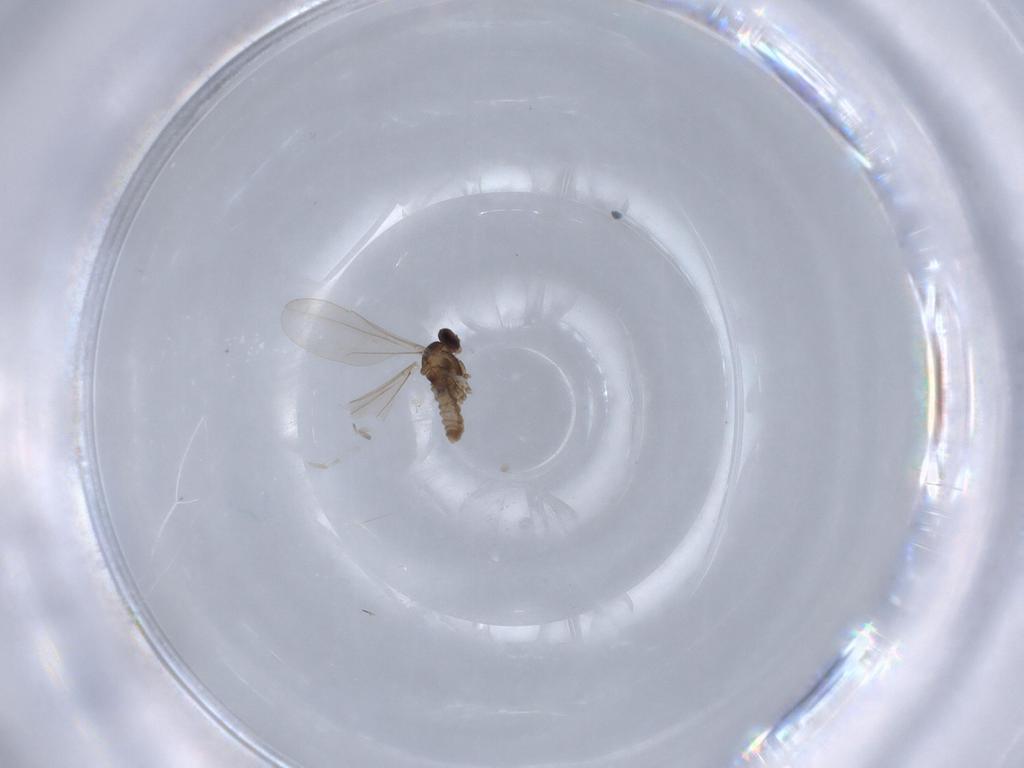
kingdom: Animalia
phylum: Arthropoda
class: Insecta
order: Diptera
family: Cecidomyiidae
